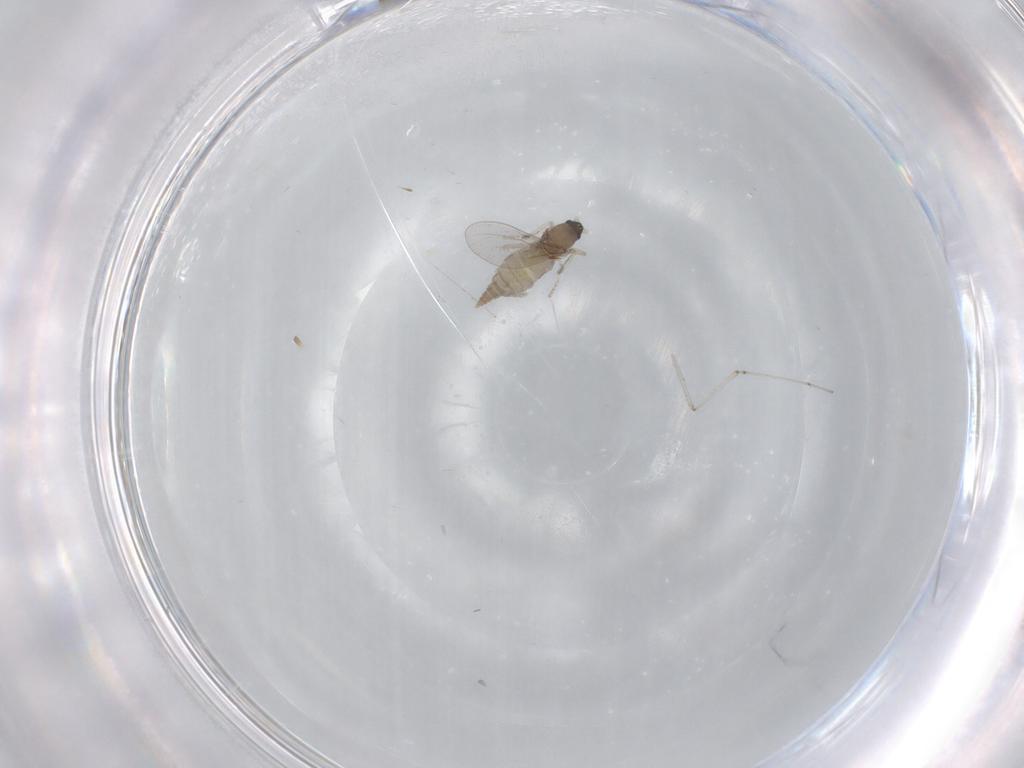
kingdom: Animalia
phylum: Arthropoda
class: Insecta
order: Diptera
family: Cecidomyiidae
